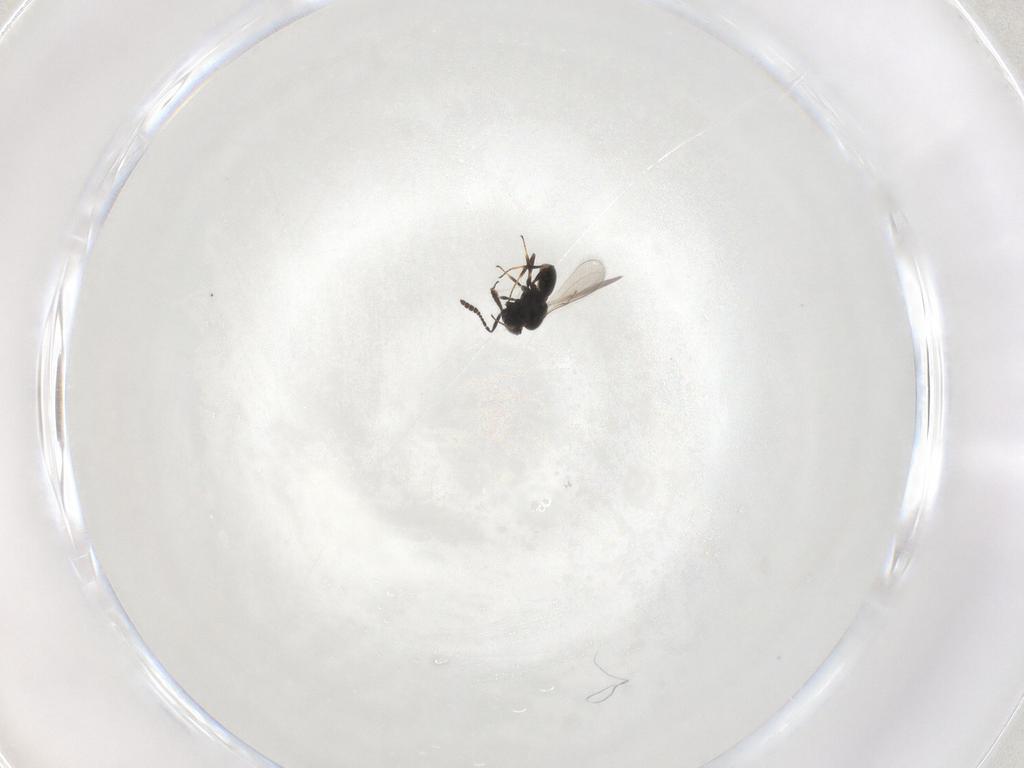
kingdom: Animalia
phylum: Arthropoda
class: Insecta
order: Hymenoptera
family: Scelionidae
